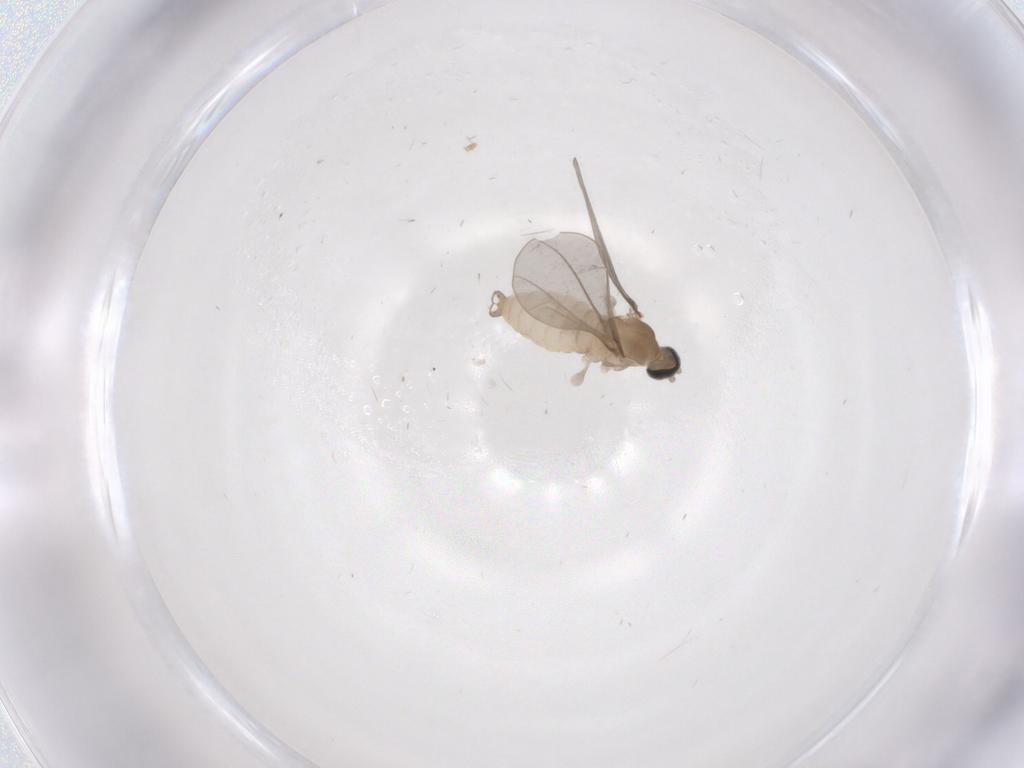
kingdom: Animalia
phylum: Arthropoda
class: Insecta
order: Diptera
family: Cecidomyiidae
